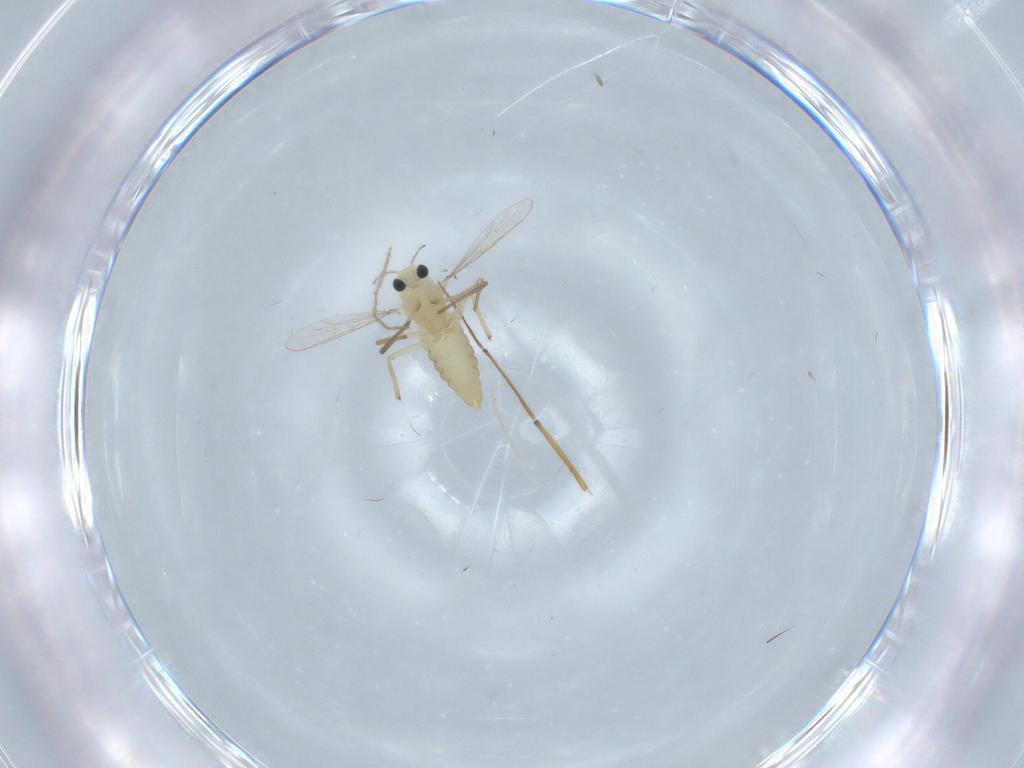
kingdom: Animalia
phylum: Arthropoda
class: Insecta
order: Diptera
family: Chironomidae
